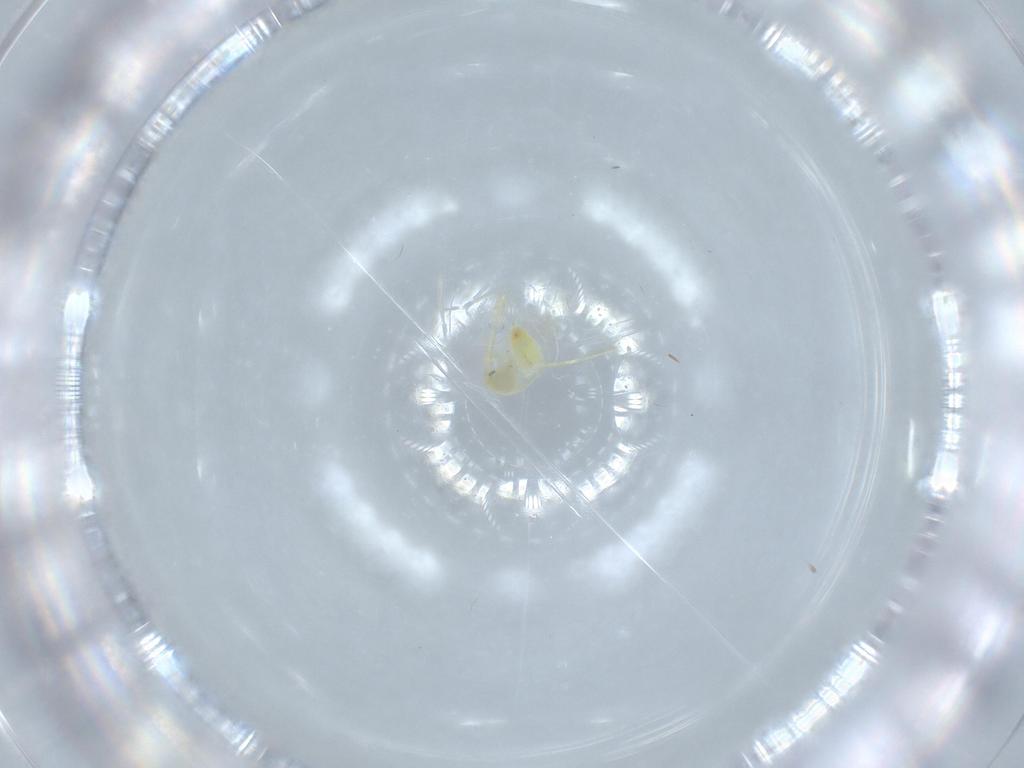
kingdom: Animalia
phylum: Arthropoda
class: Insecta
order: Hemiptera
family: Aleyrodidae
